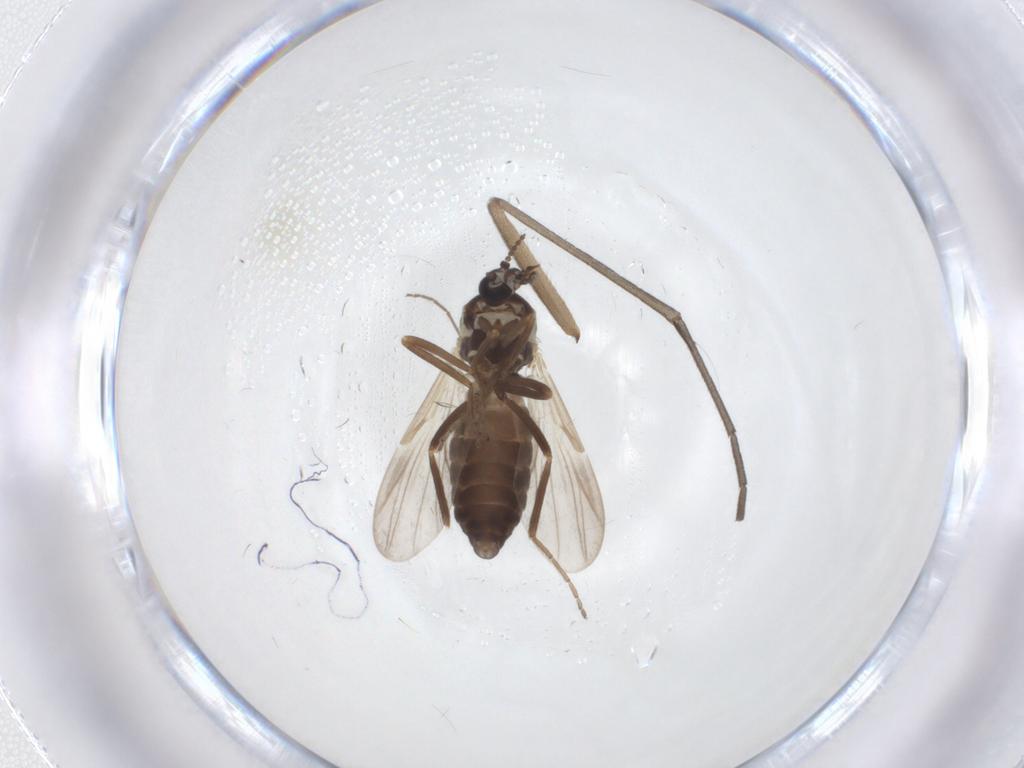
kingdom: Animalia
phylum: Arthropoda
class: Insecta
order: Diptera
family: Ceratopogonidae
